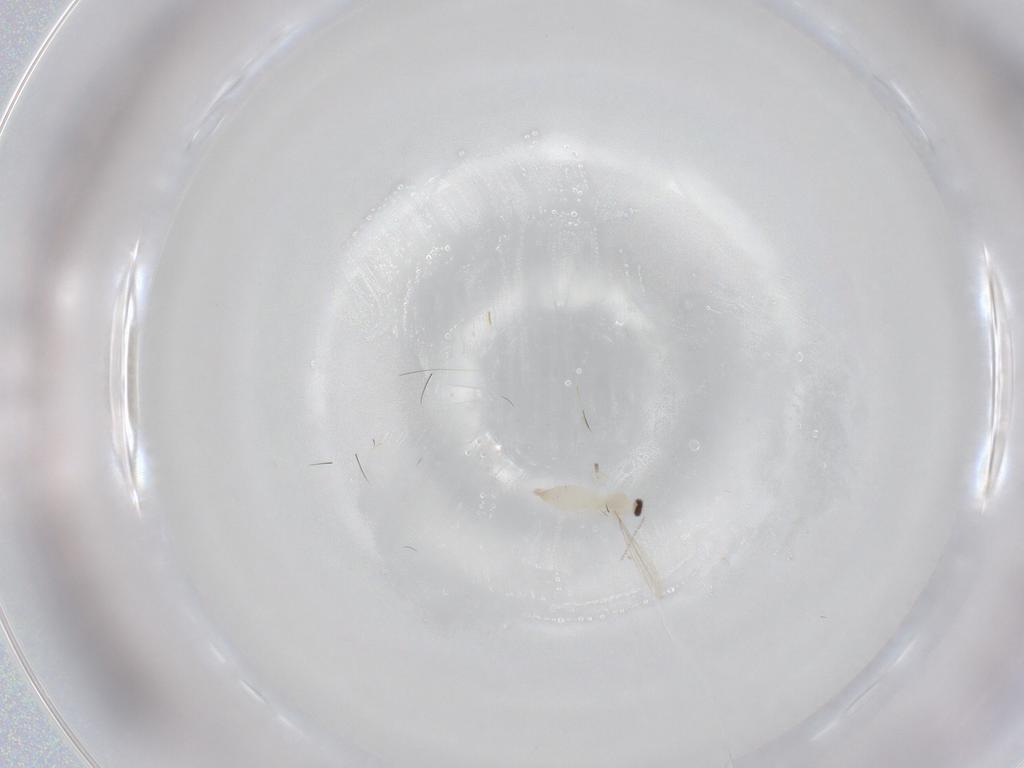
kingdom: Animalia
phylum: Arthropoda
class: Insecta
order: Diptera
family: Cecidomyiidae
